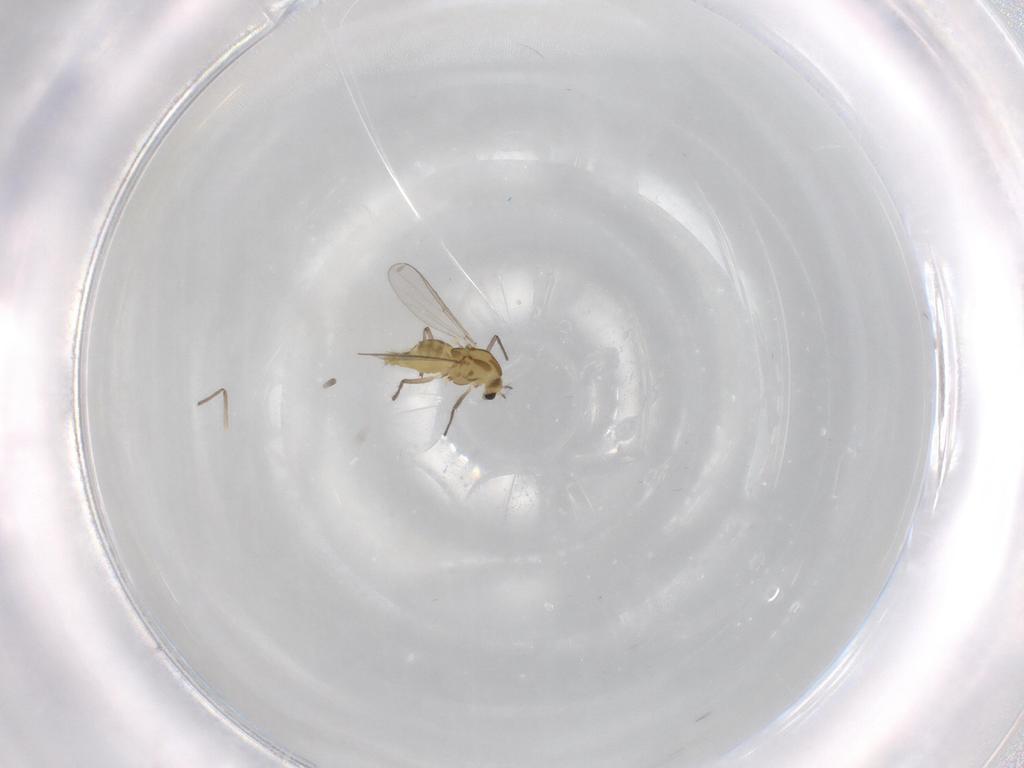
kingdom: Animalia
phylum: Arthropoda
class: Insecta
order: Diptera
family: Chironomidae
